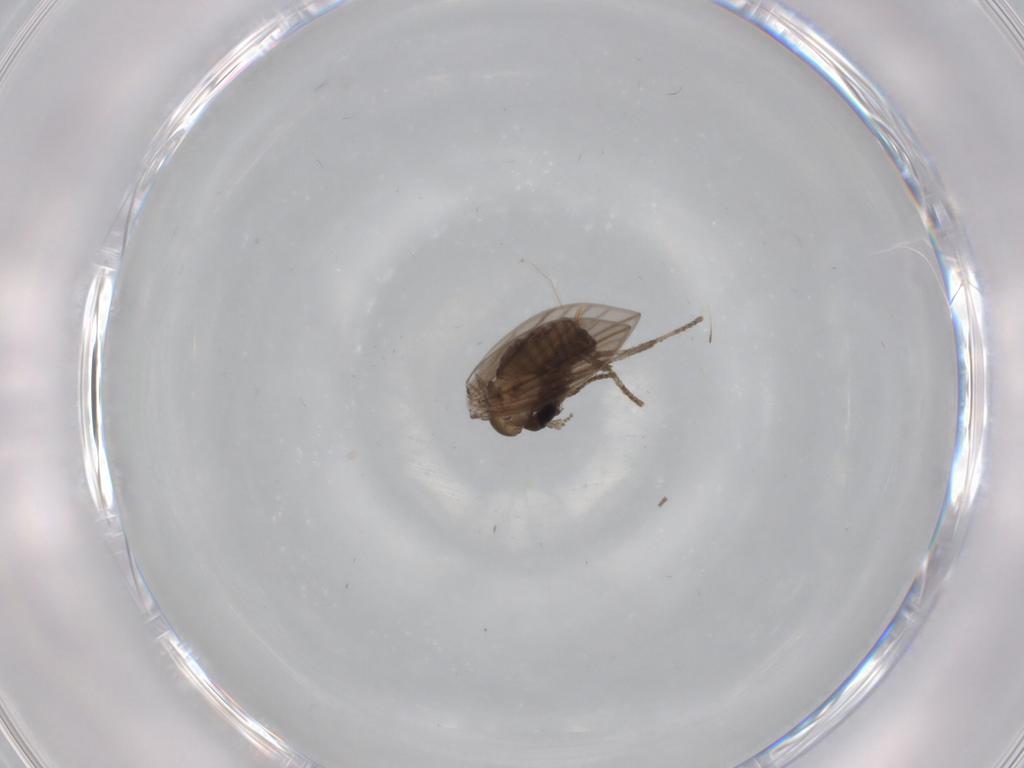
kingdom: Animalia
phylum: Arthropoda
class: Insecta
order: Diptera
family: Psychodidae
